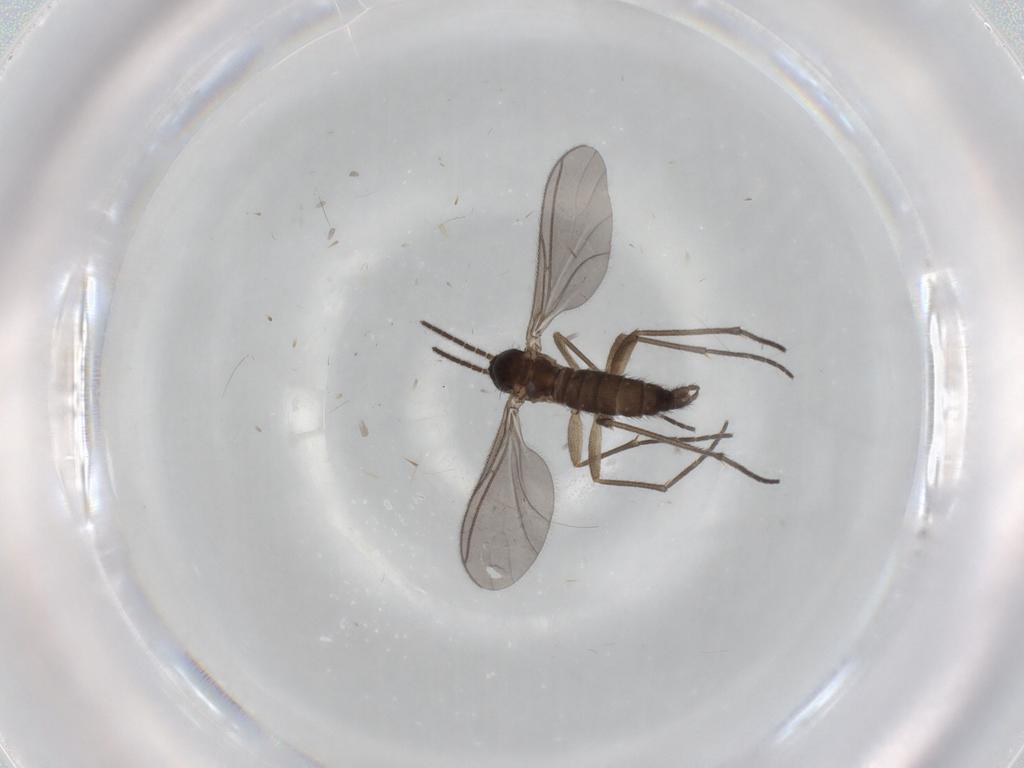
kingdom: Animalia
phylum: Arthropoda
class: Insecta
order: Diptera
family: Sciaridae
